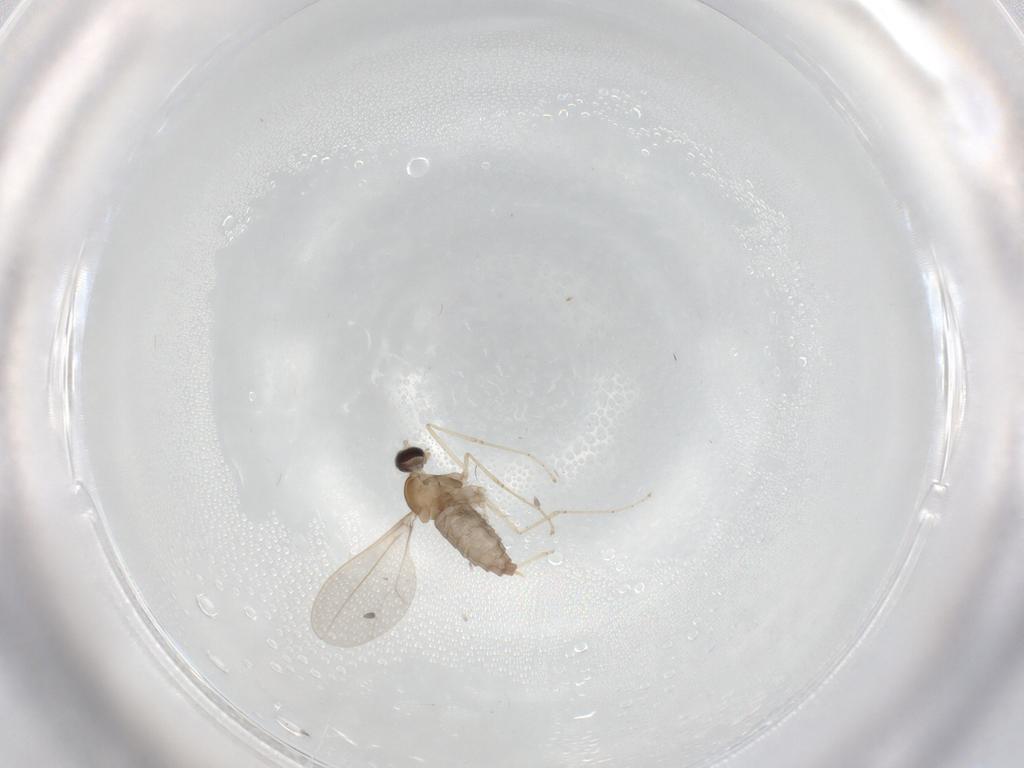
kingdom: Animalia
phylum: Arthropoda
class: Insecta
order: Diptera
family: Cecidomyiidae
